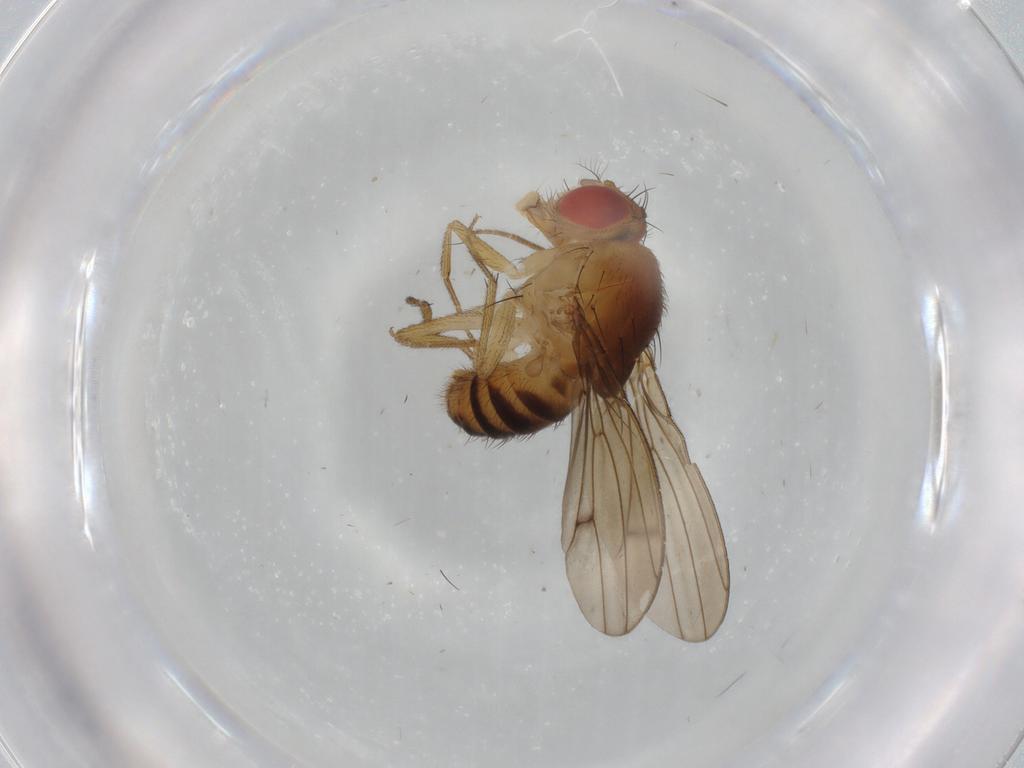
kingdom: Animalia
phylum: Arthropoda
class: Insecta
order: Diptera
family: Drosophilidae
